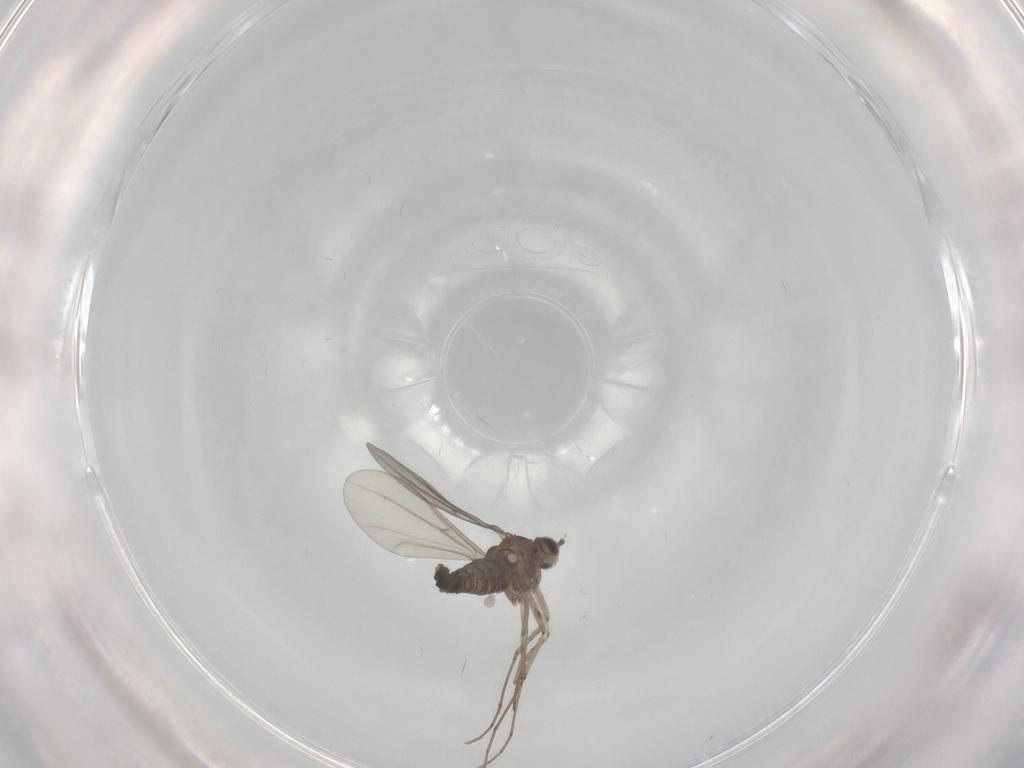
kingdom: Animalia
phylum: Arthropoda
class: Insecta
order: Diptera
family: Cecidomyiidae
